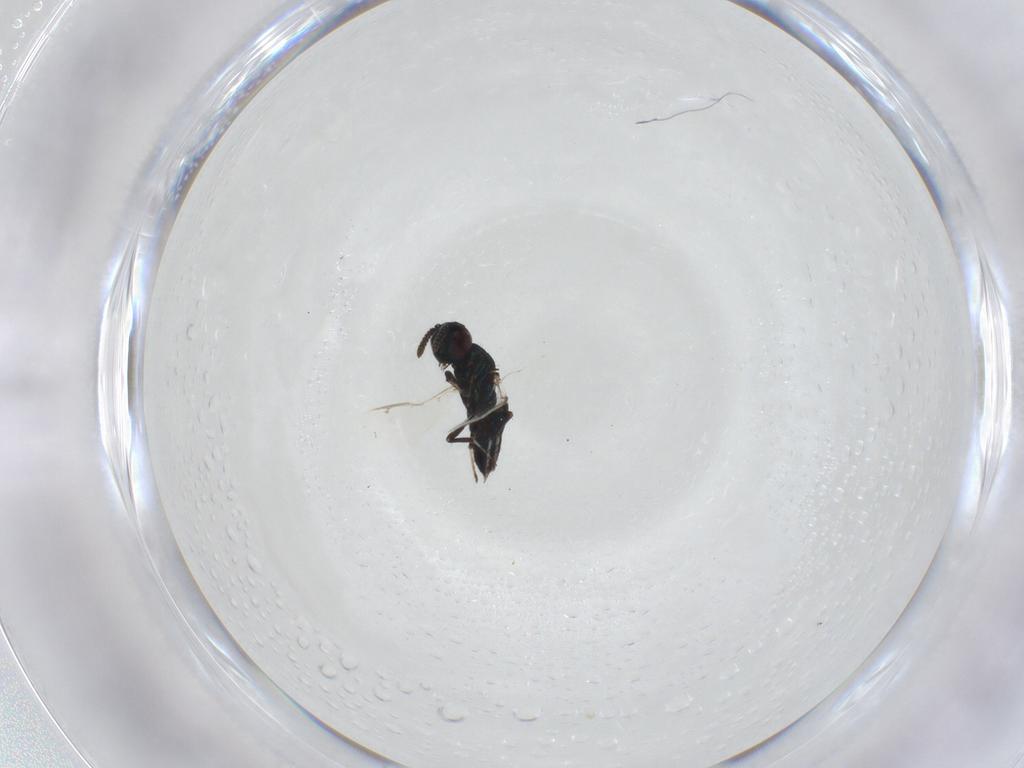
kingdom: Animalia
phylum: Arthropoda
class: Insecta
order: Hymenoptera
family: Pteromalidae
